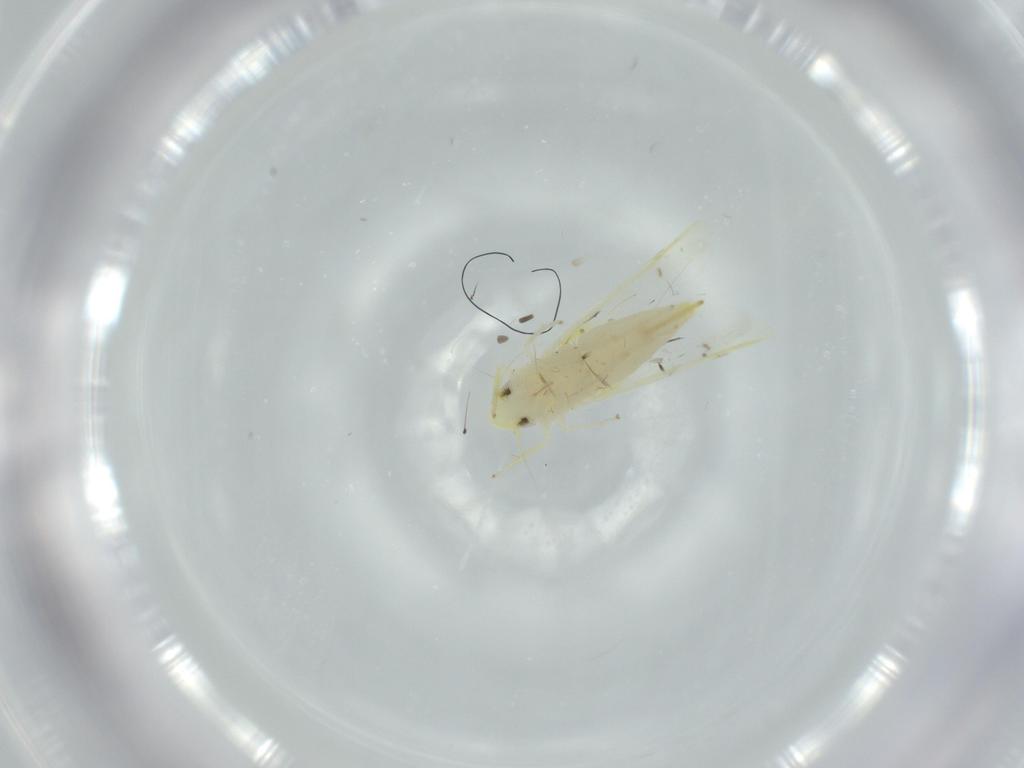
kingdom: Animalia
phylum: Arthropoda
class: Insecta
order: Hemiptera
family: Cicadellidae
